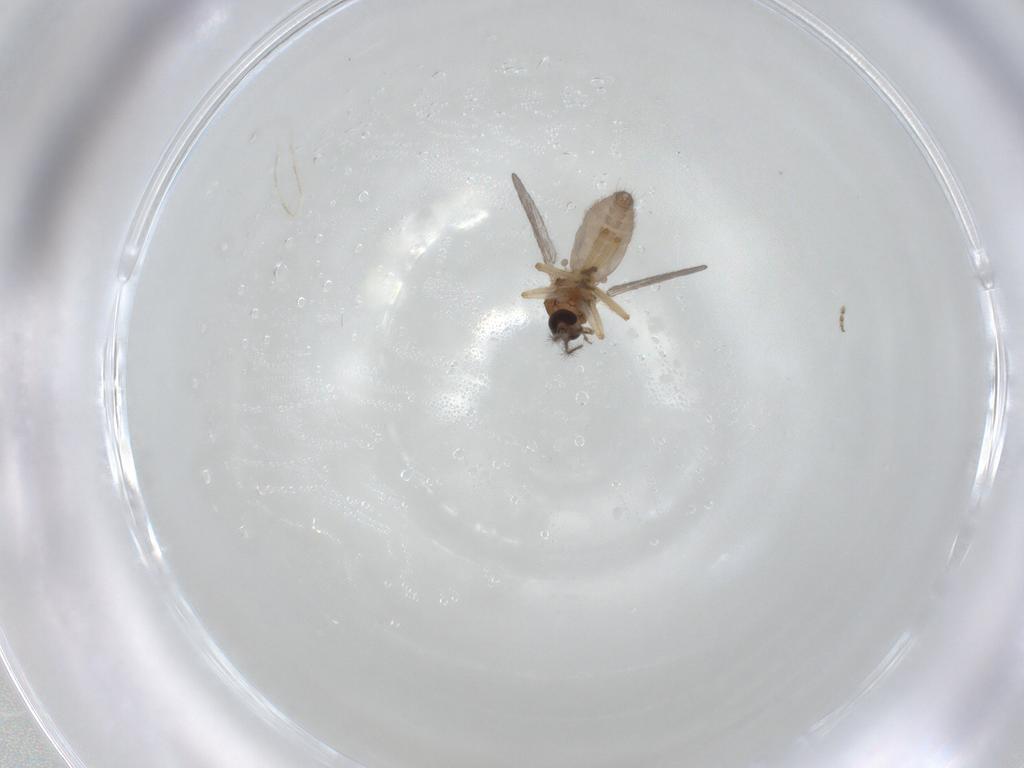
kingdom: Animalia
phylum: Arthropoda
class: Insecta
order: Diptera
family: Ceratopogonidae
